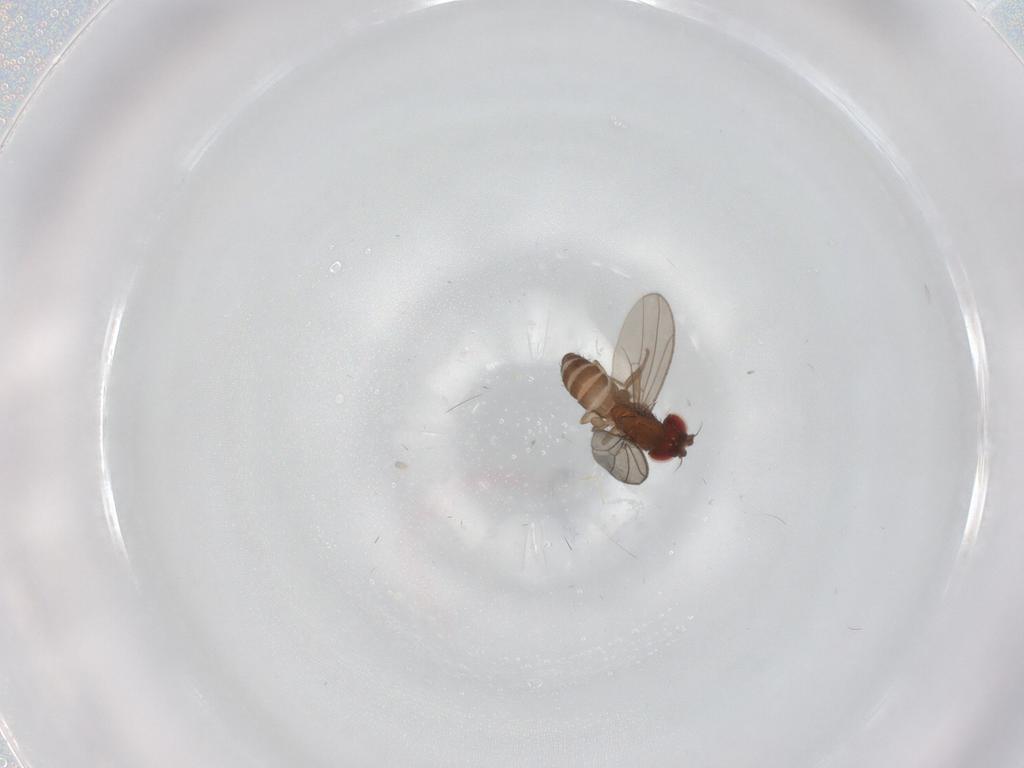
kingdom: Animalia
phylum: Arthropoda
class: Insecta
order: Diptera
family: Drosophilidae
